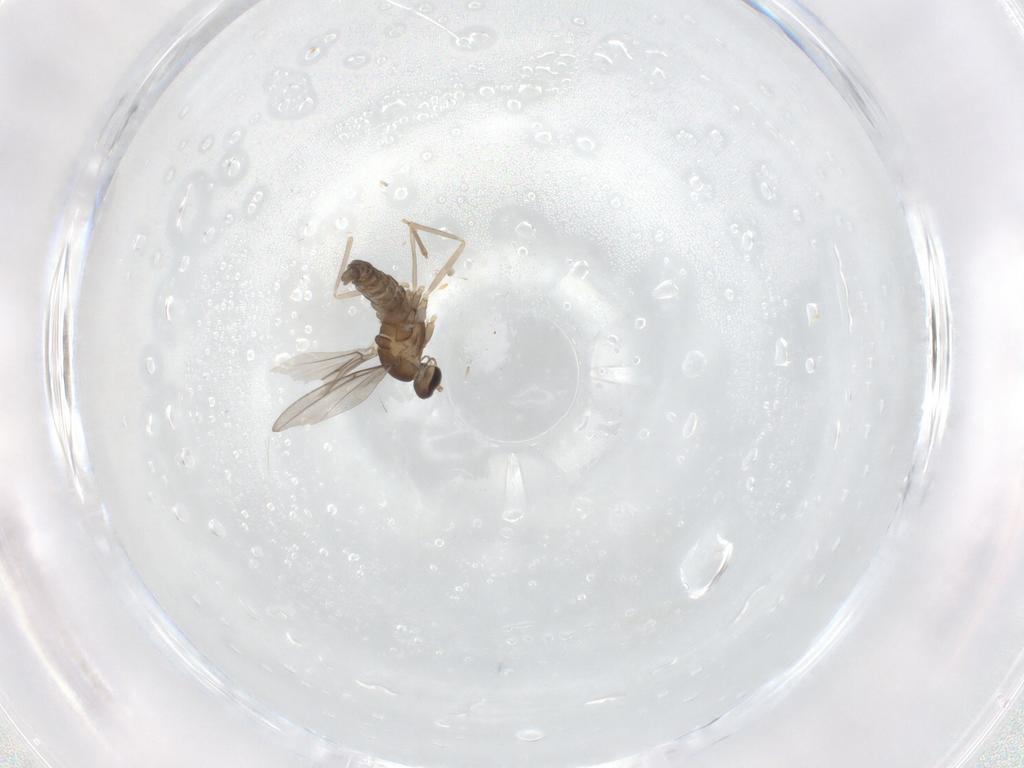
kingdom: Animalia
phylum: Arthropoda
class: Insecta
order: Diptera
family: Cecidomyiidae
